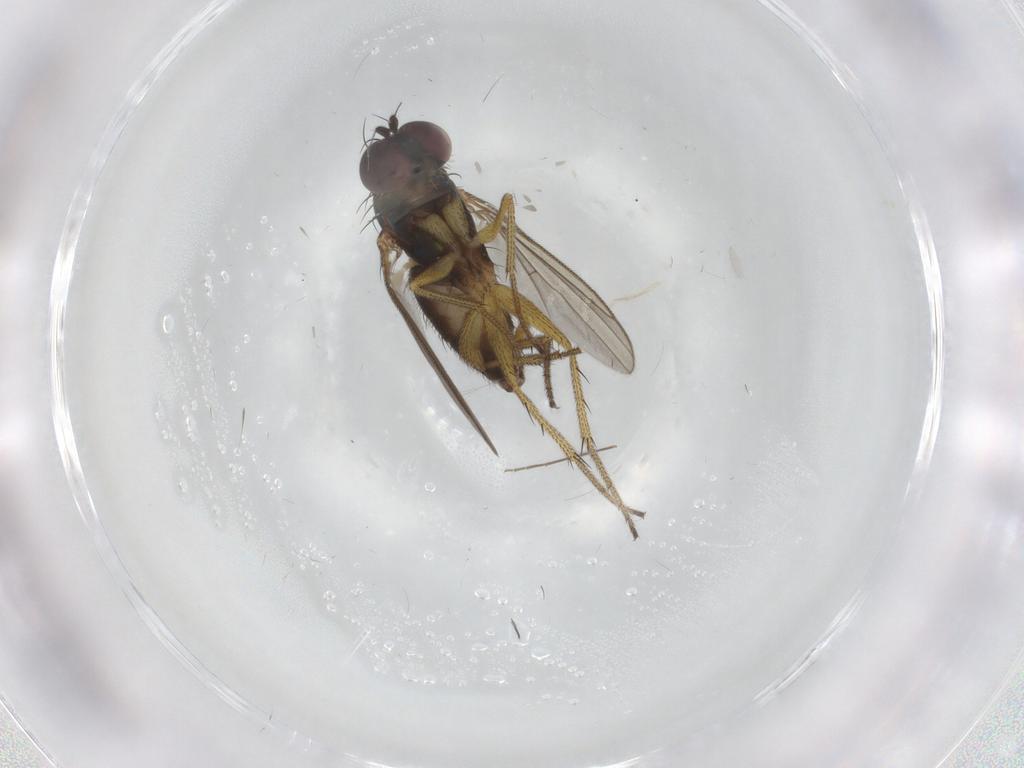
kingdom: Animalia
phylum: Arthropoda
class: Insecta
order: Diptera
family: Dolichopodidae
